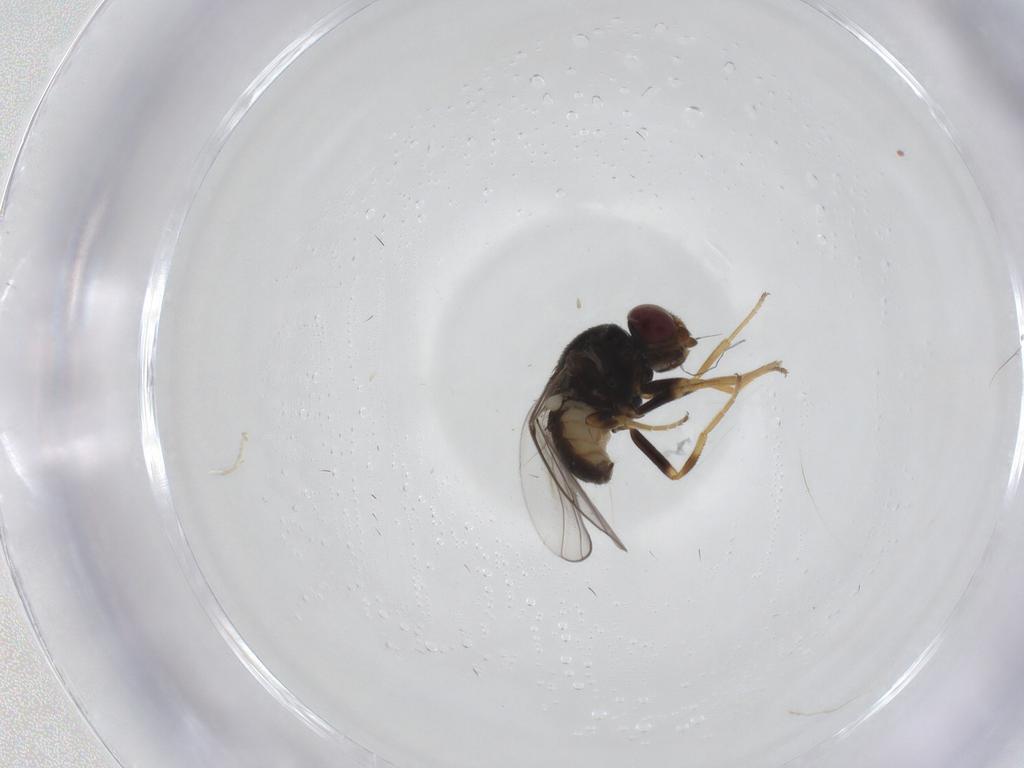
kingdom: Animalia
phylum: Arthropoda
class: Insecta
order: Diptera
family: Chloropidae
